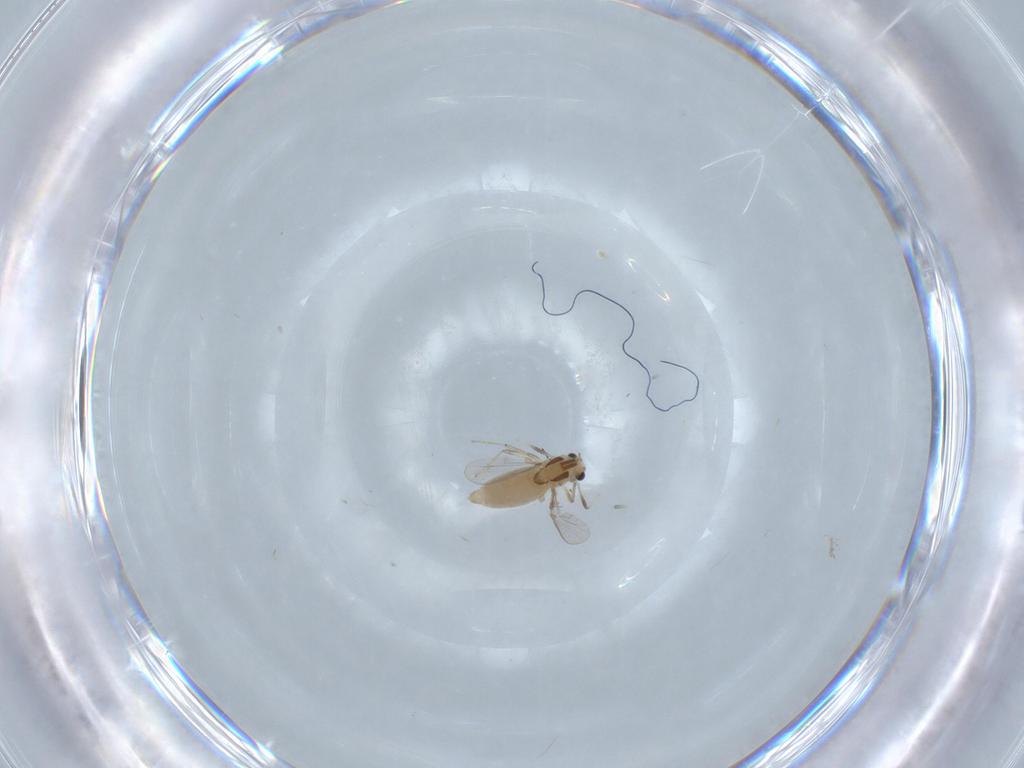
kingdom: Animalia
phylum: Arthropoda
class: Insecta
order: Diptera
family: Chironomidae
